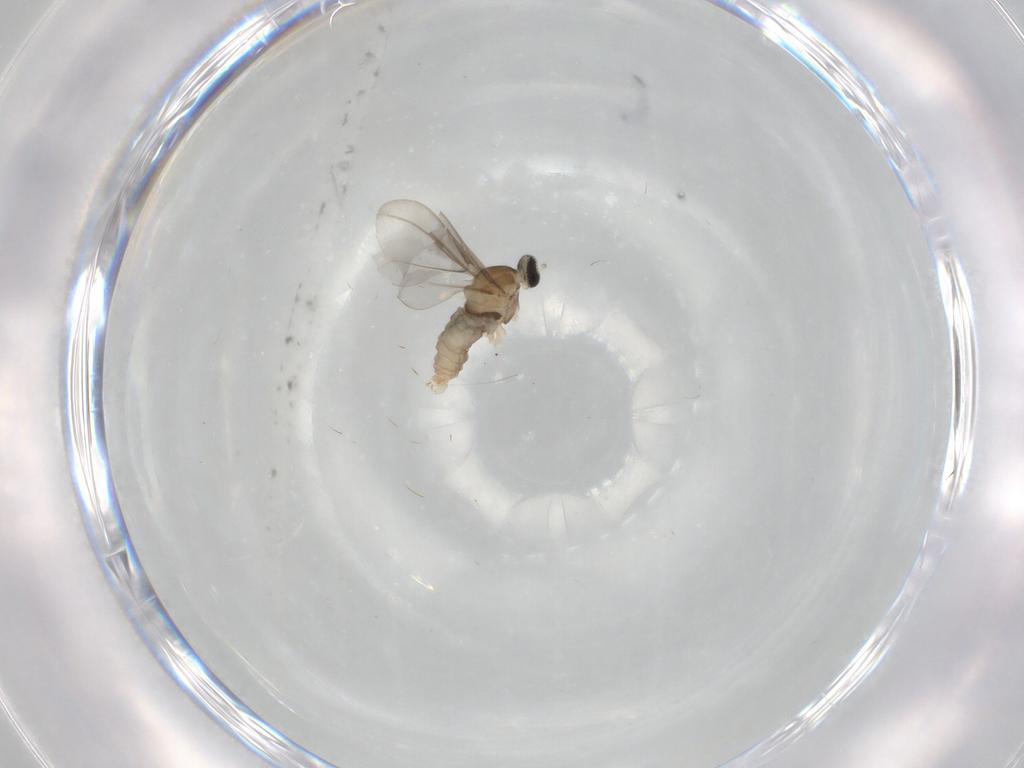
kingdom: Animalia
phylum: Arthropoda
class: Insecta
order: Diptera
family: Cecidomyiidae
